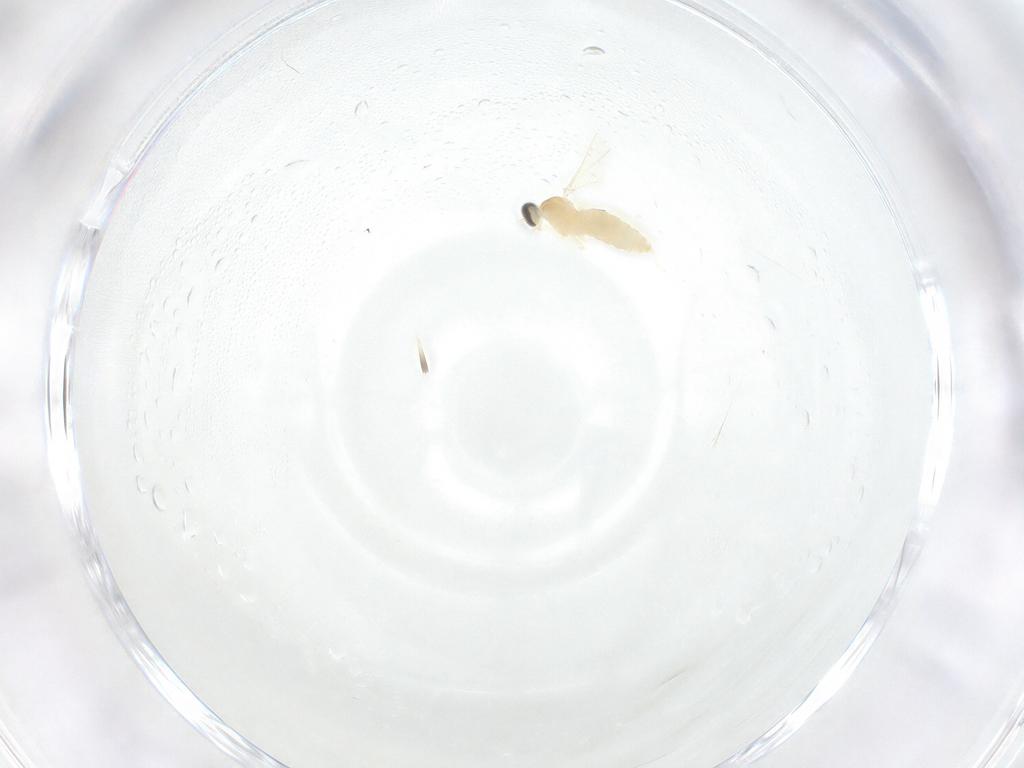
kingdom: Animalia
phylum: Arthropoda
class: Insecta
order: Diptera
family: Cecidomyiidae
